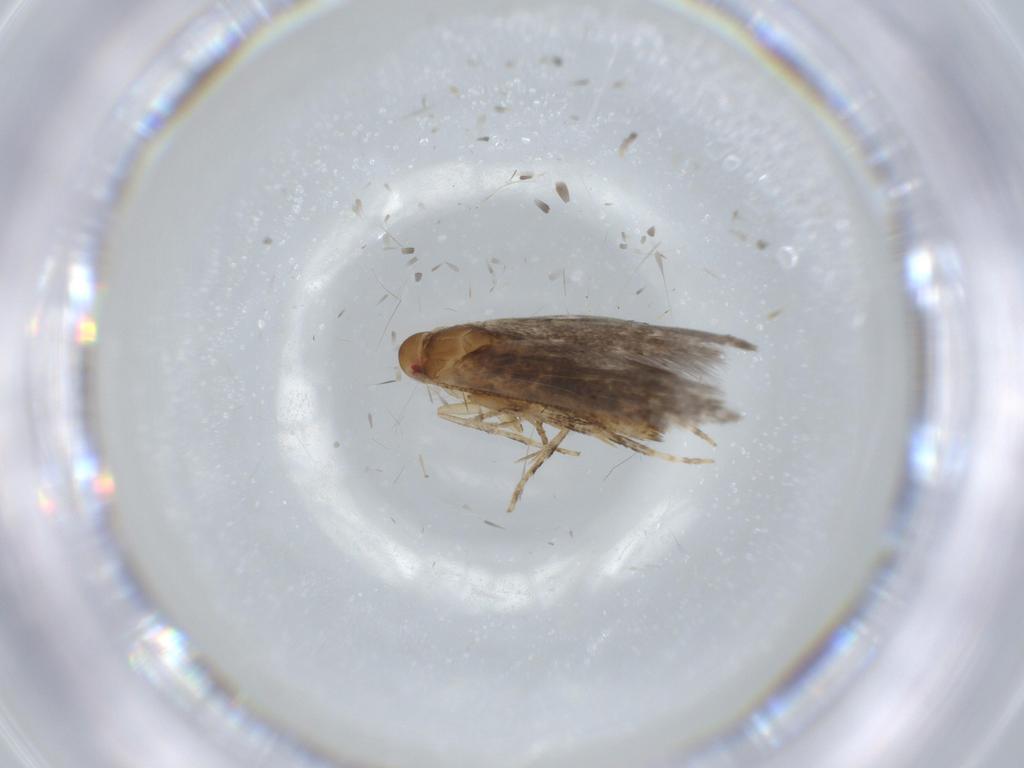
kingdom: Animalia
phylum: Arthropoda
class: Insecta
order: Lepidoptera
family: Momphidae
